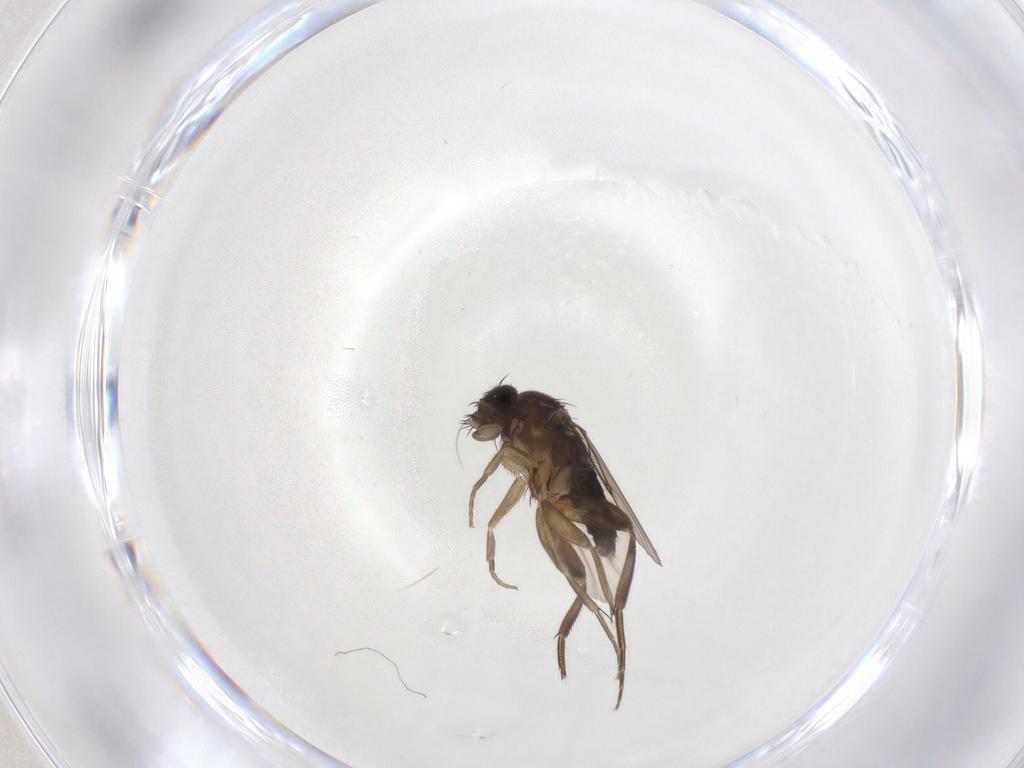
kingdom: Animalia
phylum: Arthropoda
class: Insecta
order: Diptera
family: Phoridae
